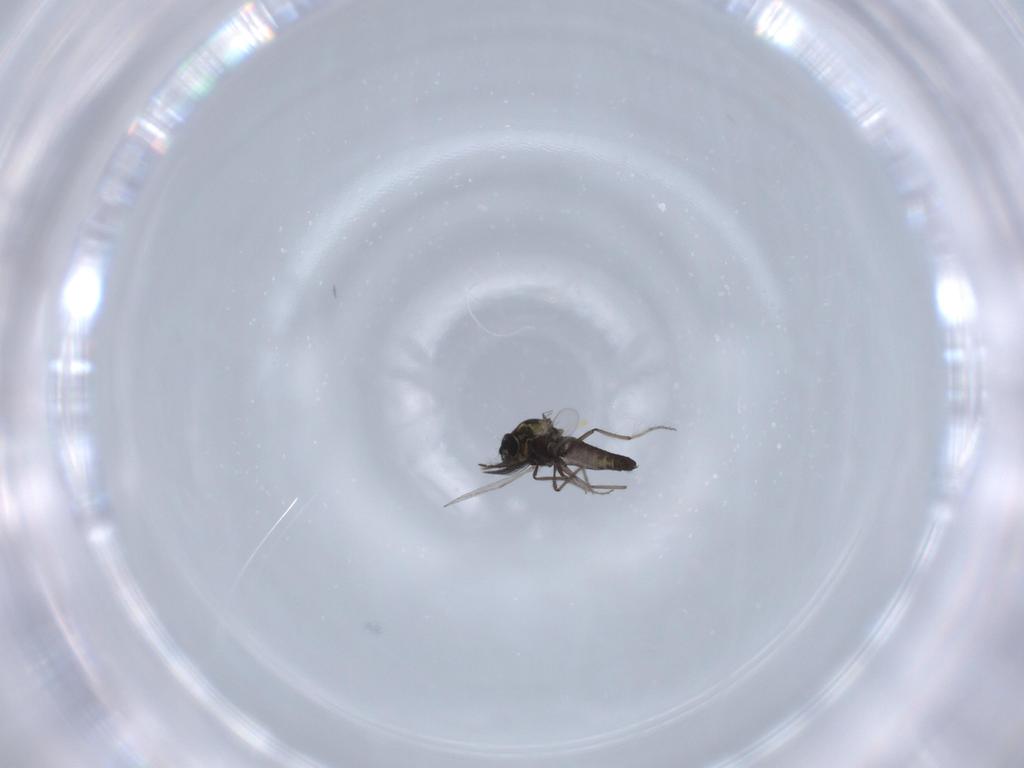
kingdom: Animalia
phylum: Arthropoda
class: Insecta
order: Diptera
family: Ceratopogonidae
